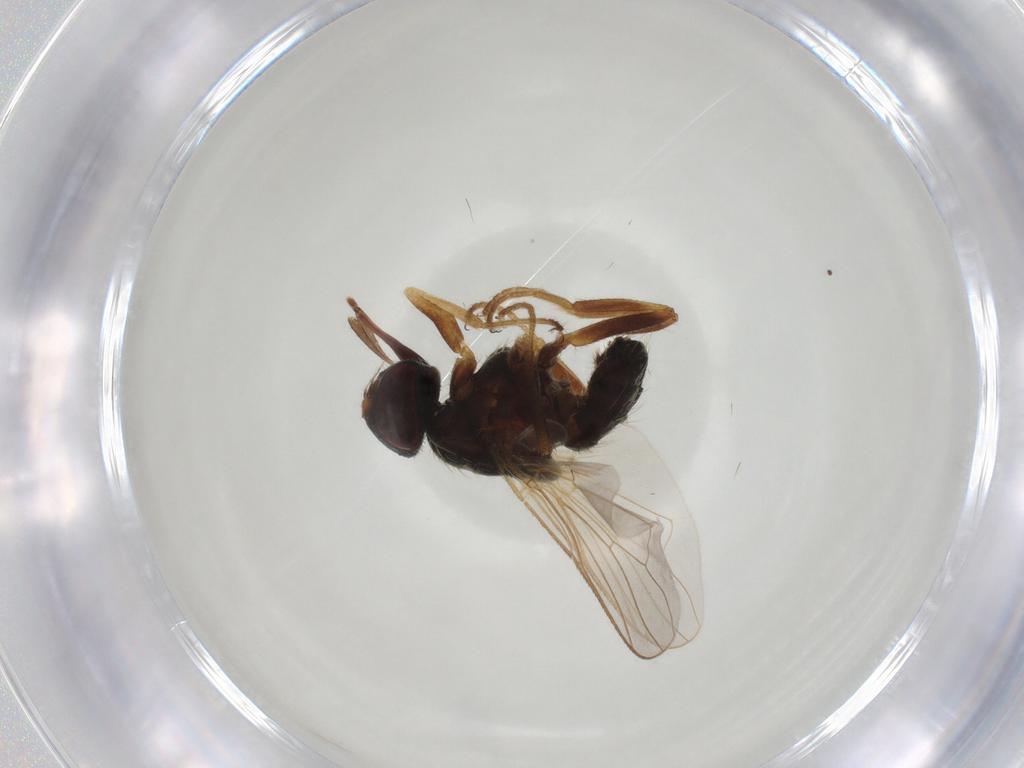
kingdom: Animalia
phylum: Arthropoda
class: Insecta
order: Diptera
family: Muscidae
